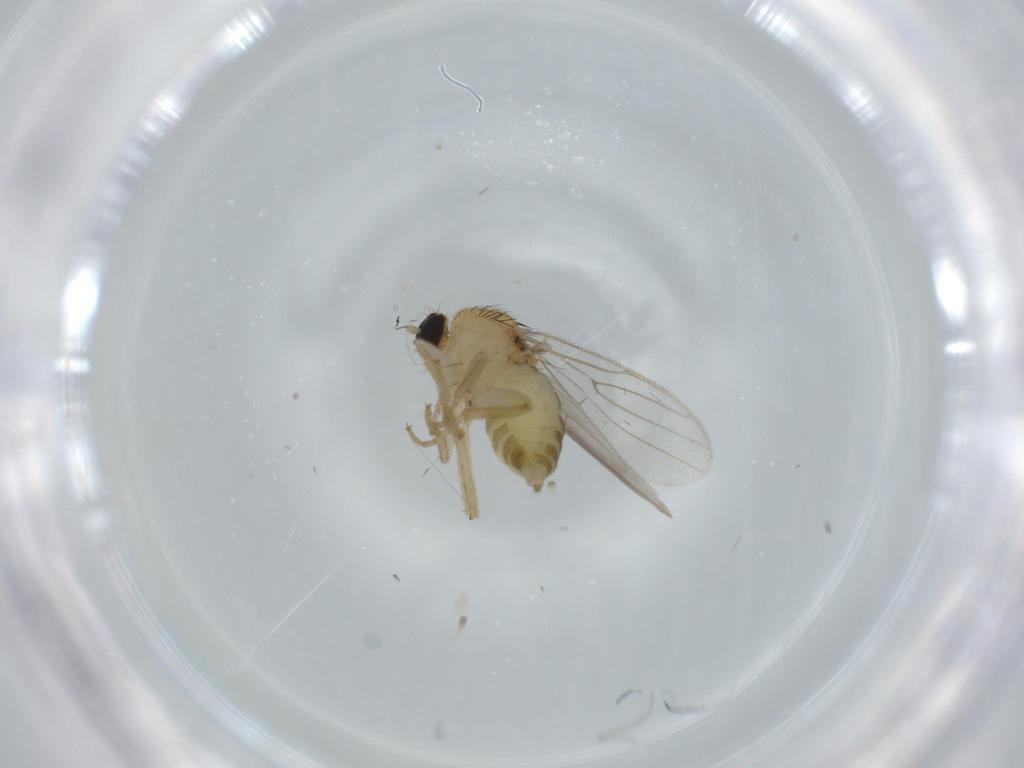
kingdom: Animalia
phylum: Arthropoda
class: Insecta
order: Diptera
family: Hybotidae
